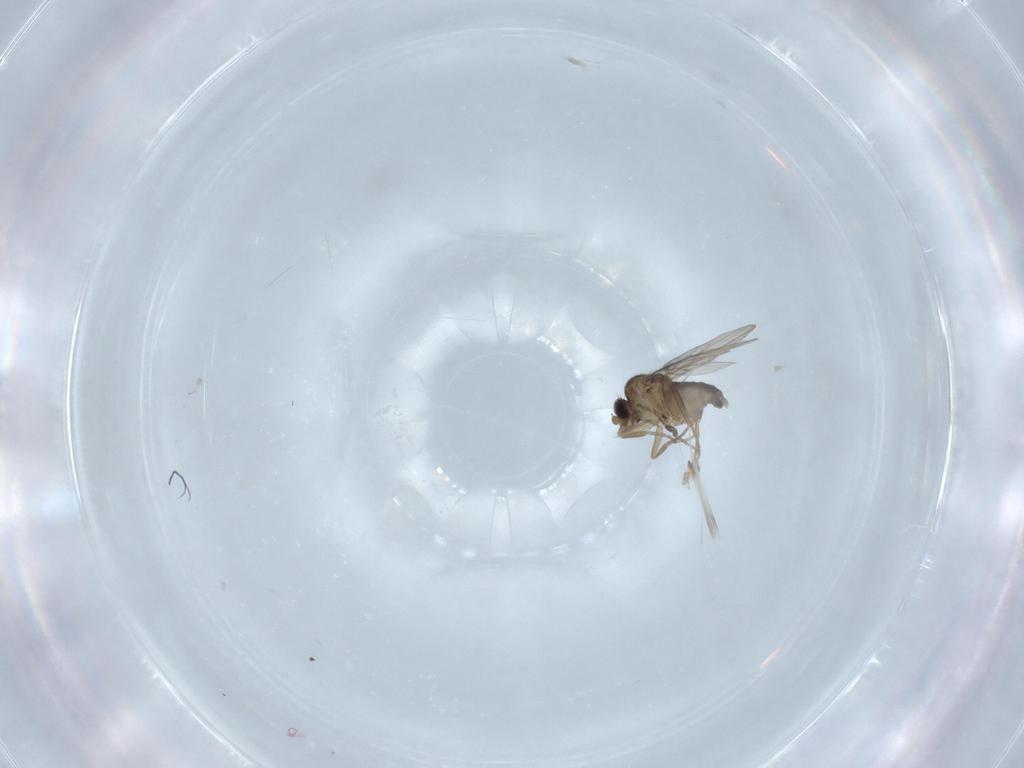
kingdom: Animalia
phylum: Arthropoda
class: Insecta
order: Diptera
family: Phoridae
